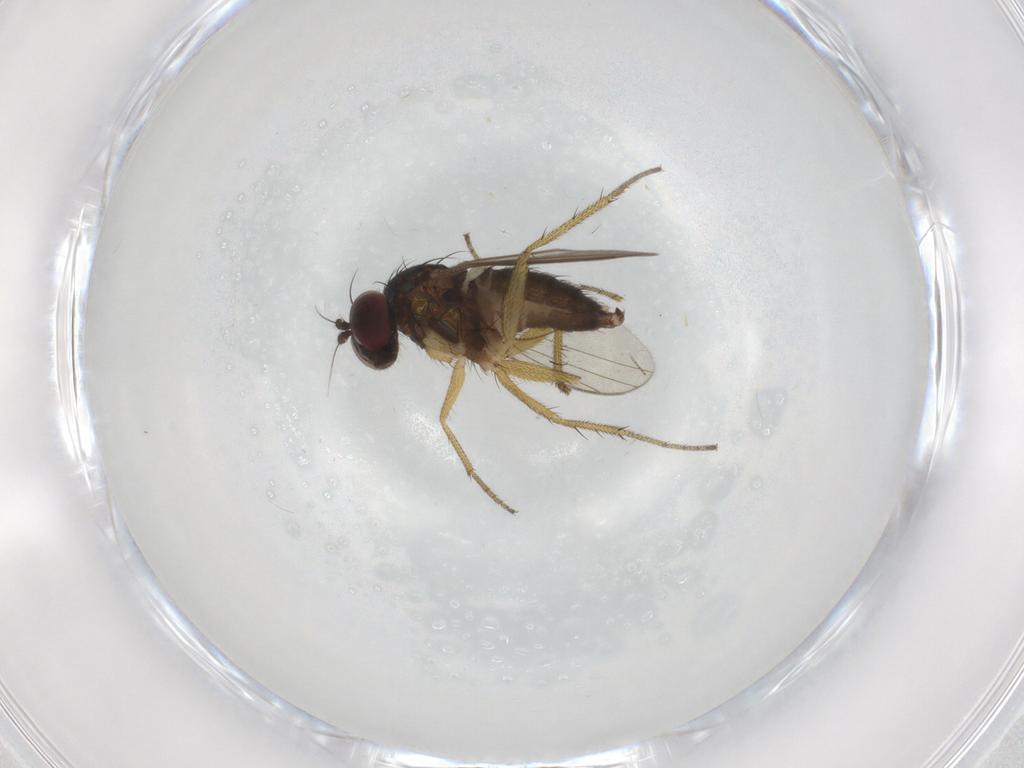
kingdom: Animalia
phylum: Arthropoda
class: Insecta
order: Diptera
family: Dolichopodidae
